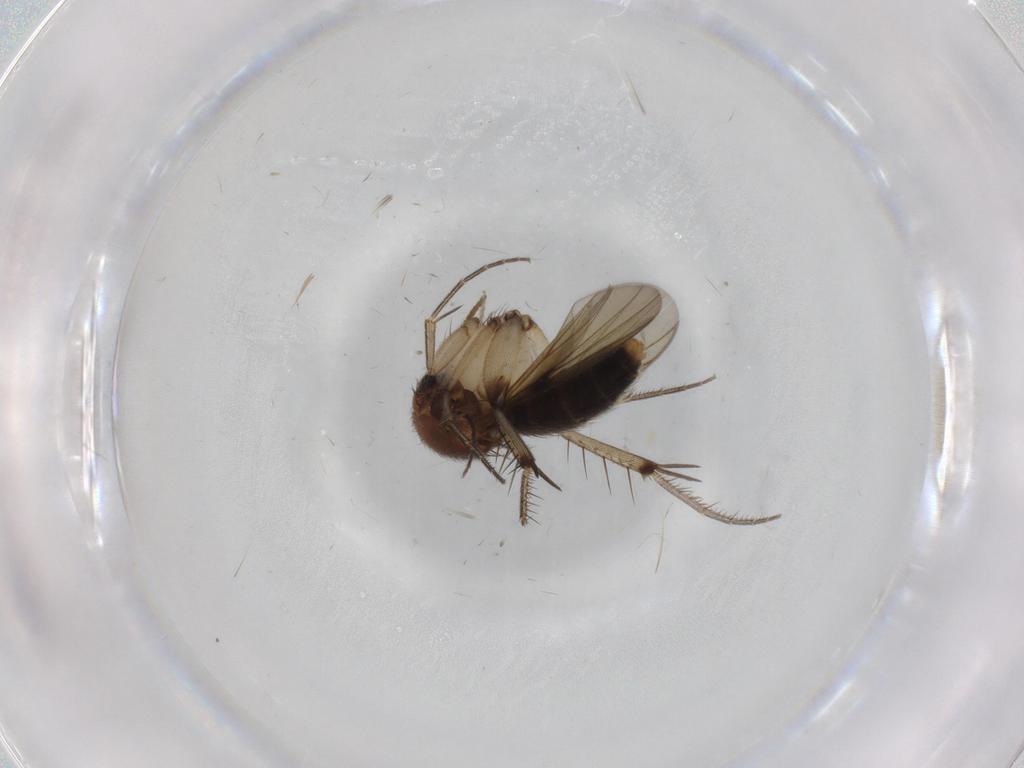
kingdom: Animalia
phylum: Arthropoda
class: Insecta
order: Diptera
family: Mycetophilidae
